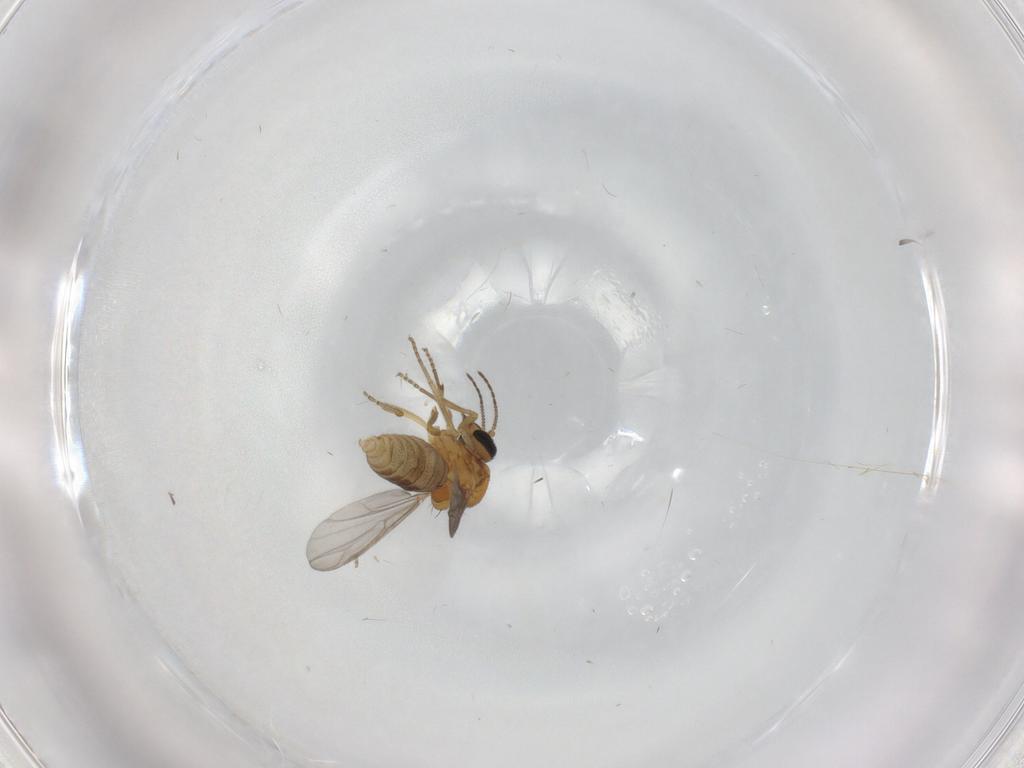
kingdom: Animalia
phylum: Arthropoda
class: Insecta
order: Diptera
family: Ceratopogonidae
